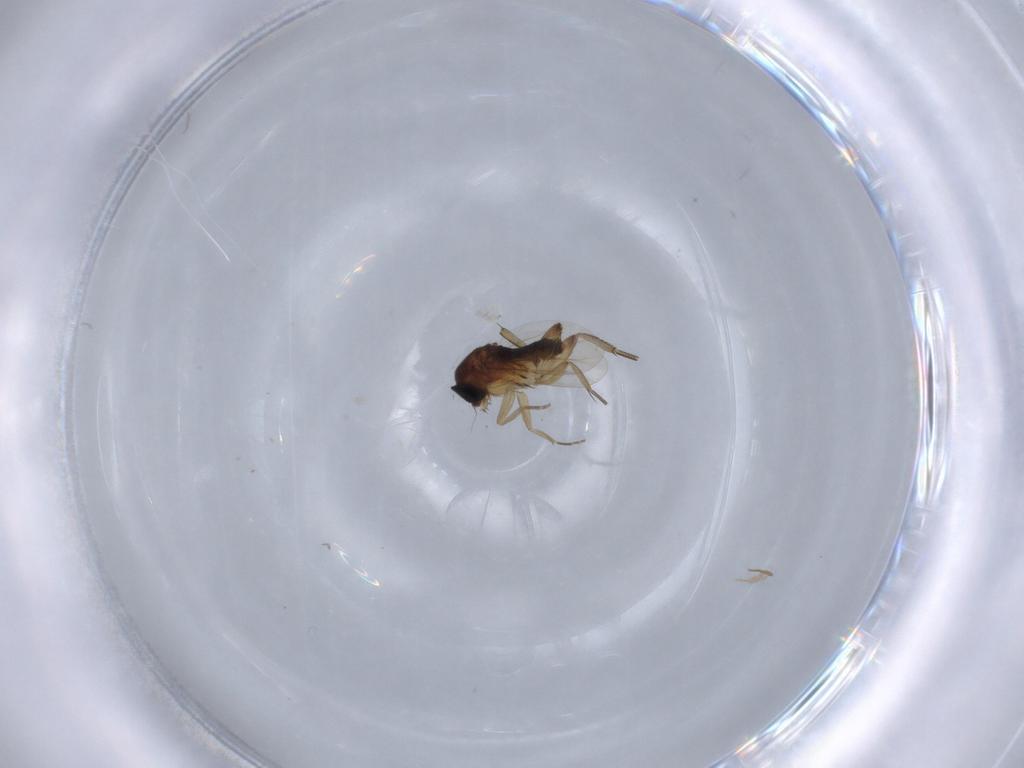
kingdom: Animalia
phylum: Arthropoda
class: Insecta
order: Diptera
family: Phoridae
